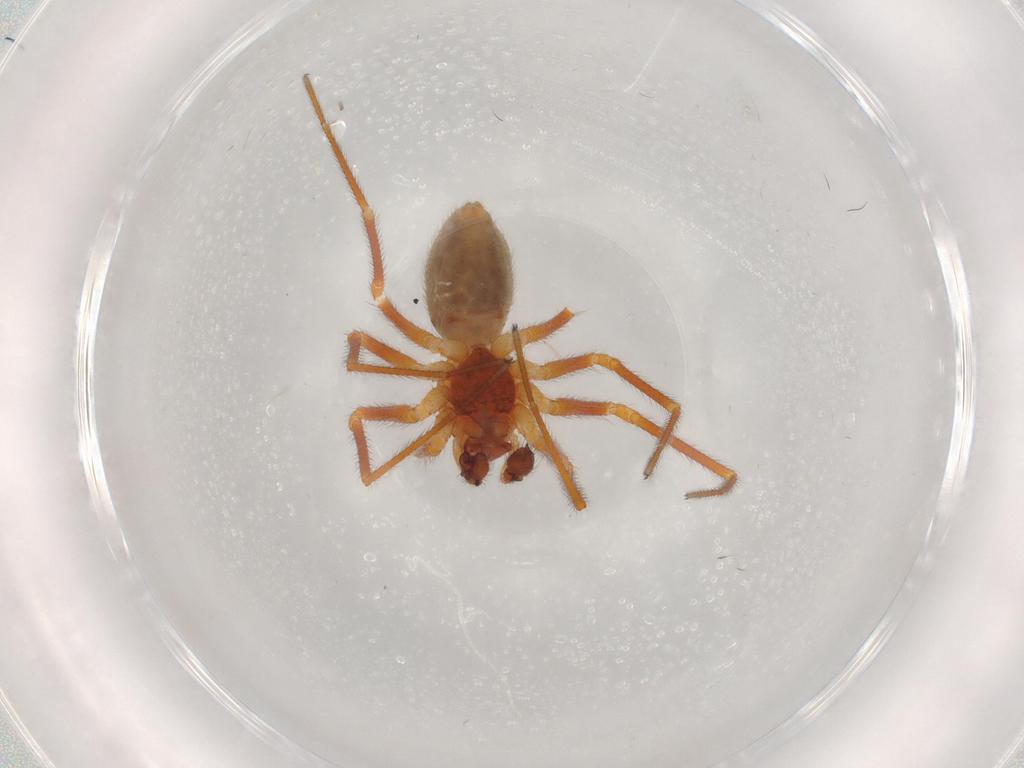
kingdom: Animalia
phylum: Arthropoda
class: Arachnida
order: Araneae
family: Linyphiidae
